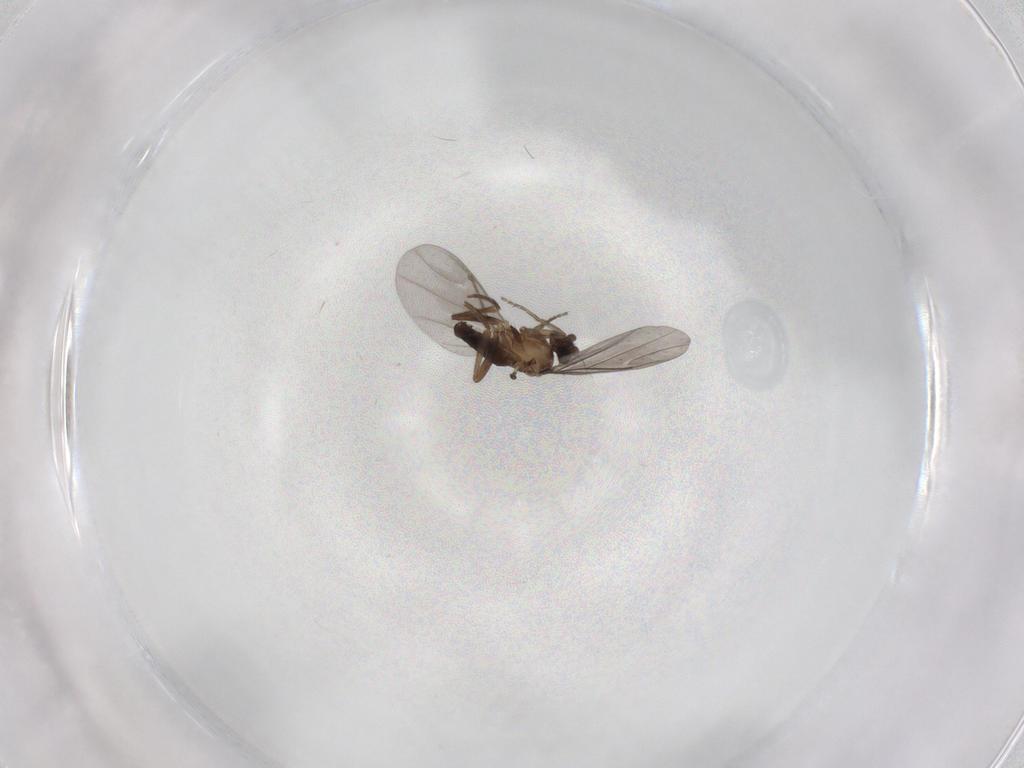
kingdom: Animalia
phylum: Arthropoda
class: Insecta
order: Diptera
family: Phoridae
